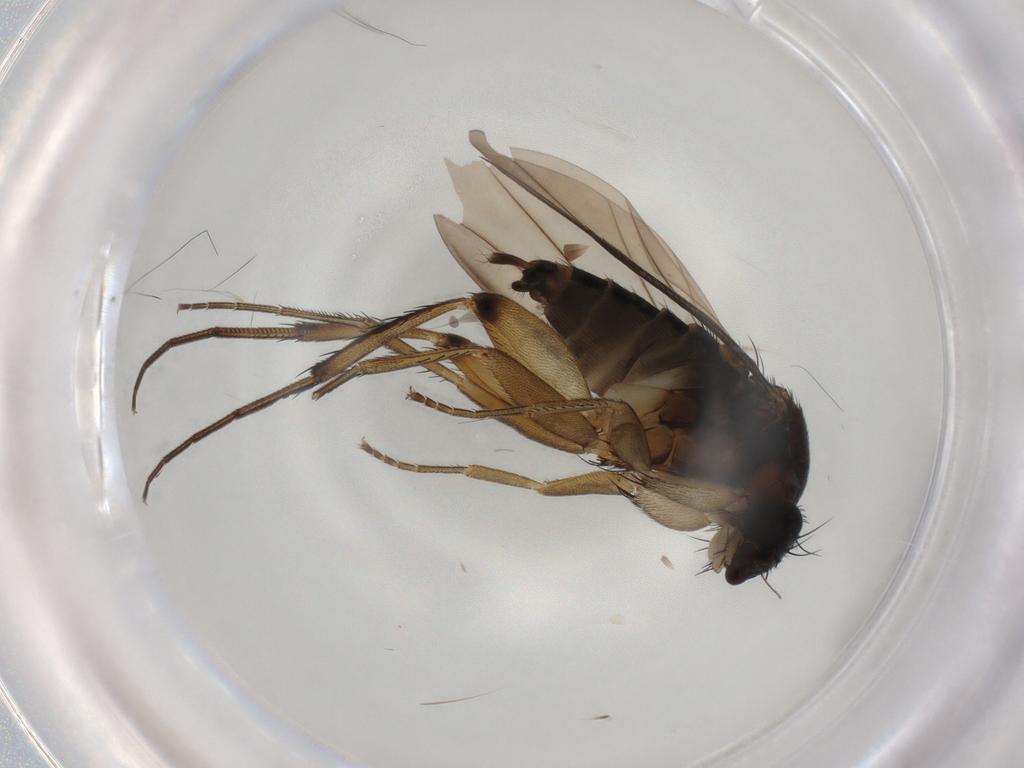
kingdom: Animalia
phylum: Arthropoda
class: Insecta
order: Diptera
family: Phoridae
